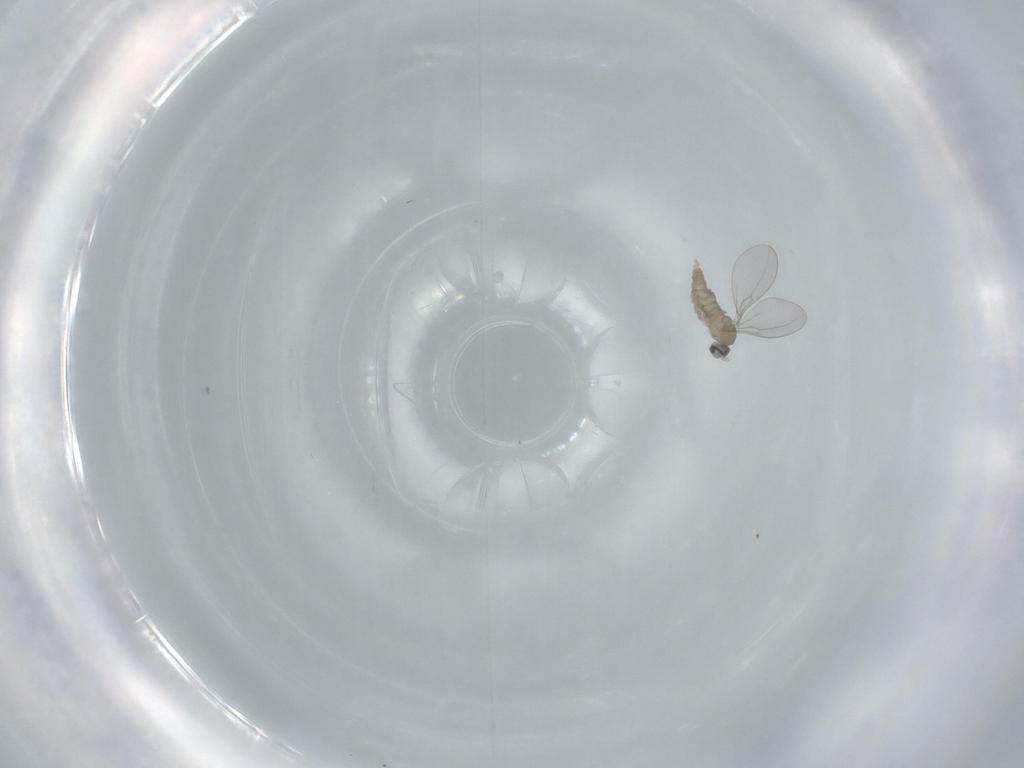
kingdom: Animalia
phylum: Arthropoda
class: Insecta
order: Diptera
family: Cecidomyiidae
